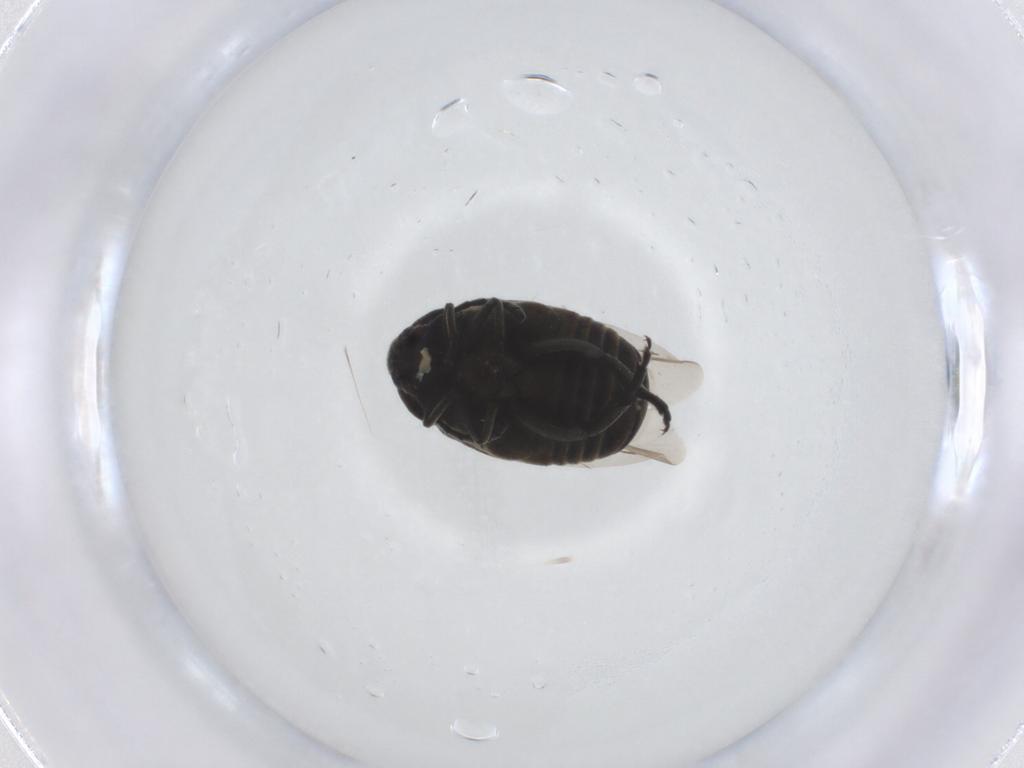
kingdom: Animalia
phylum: Arthropoda
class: Insecta
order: Coleoptera
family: Chrysomelidae
